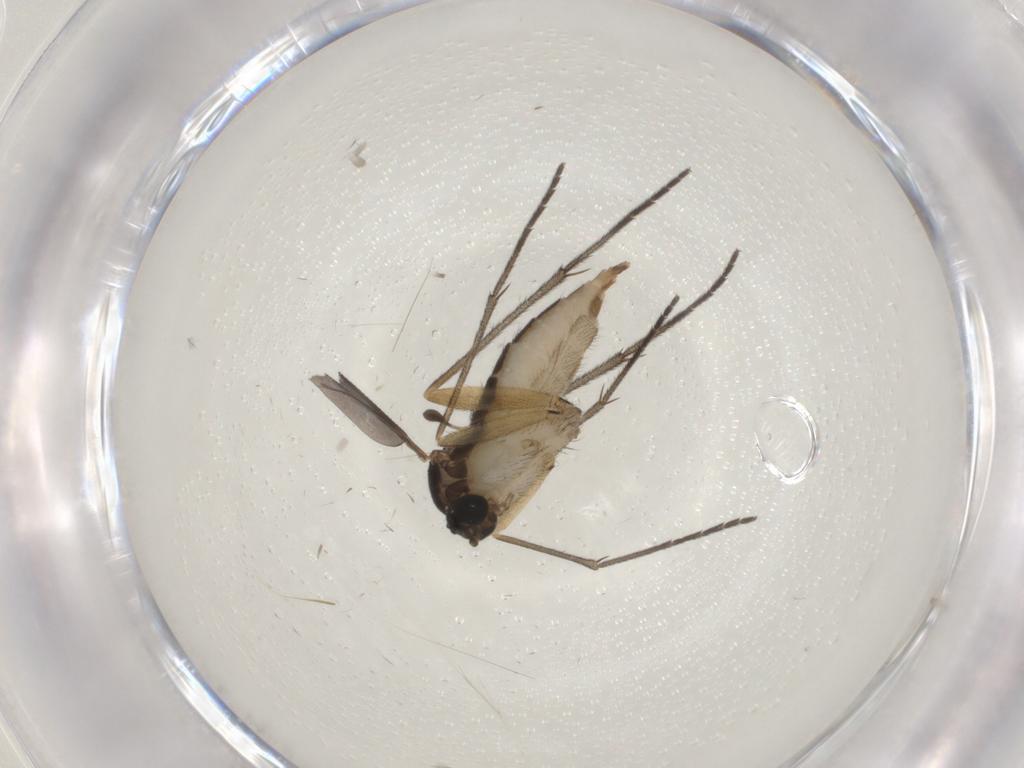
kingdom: Animalia
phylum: Arthropoda
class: Insecta
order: Diptera
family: Sciaridae
